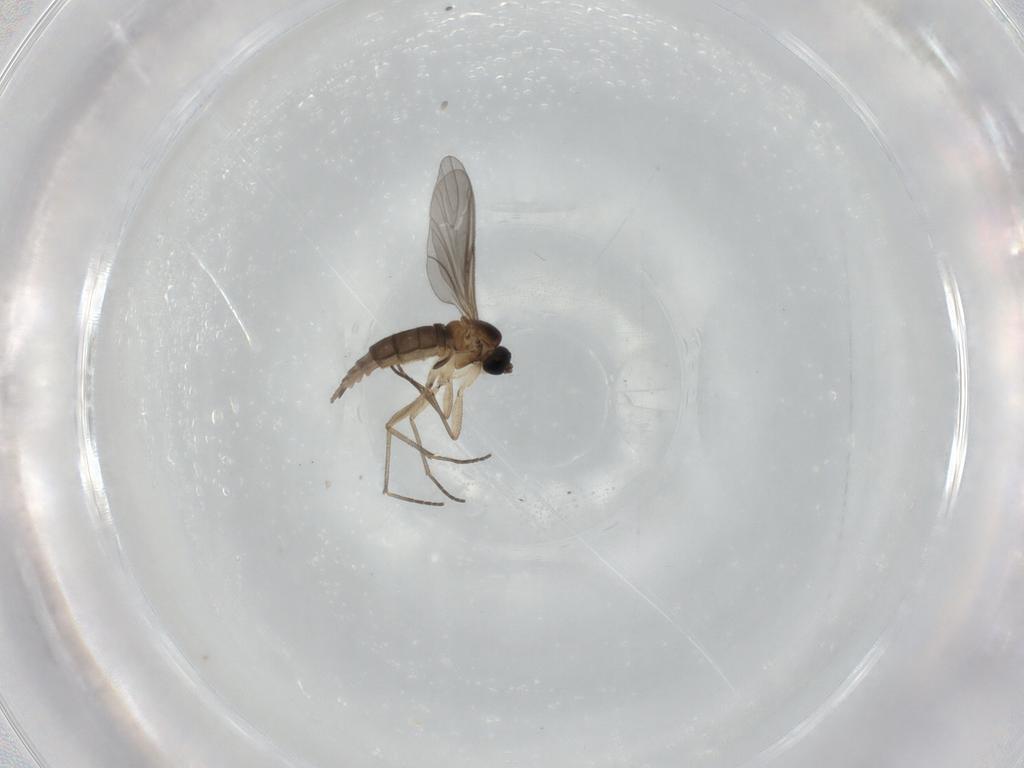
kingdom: Animalia
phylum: Arthropoda
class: Insecta
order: Diptera
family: Sciaridae
